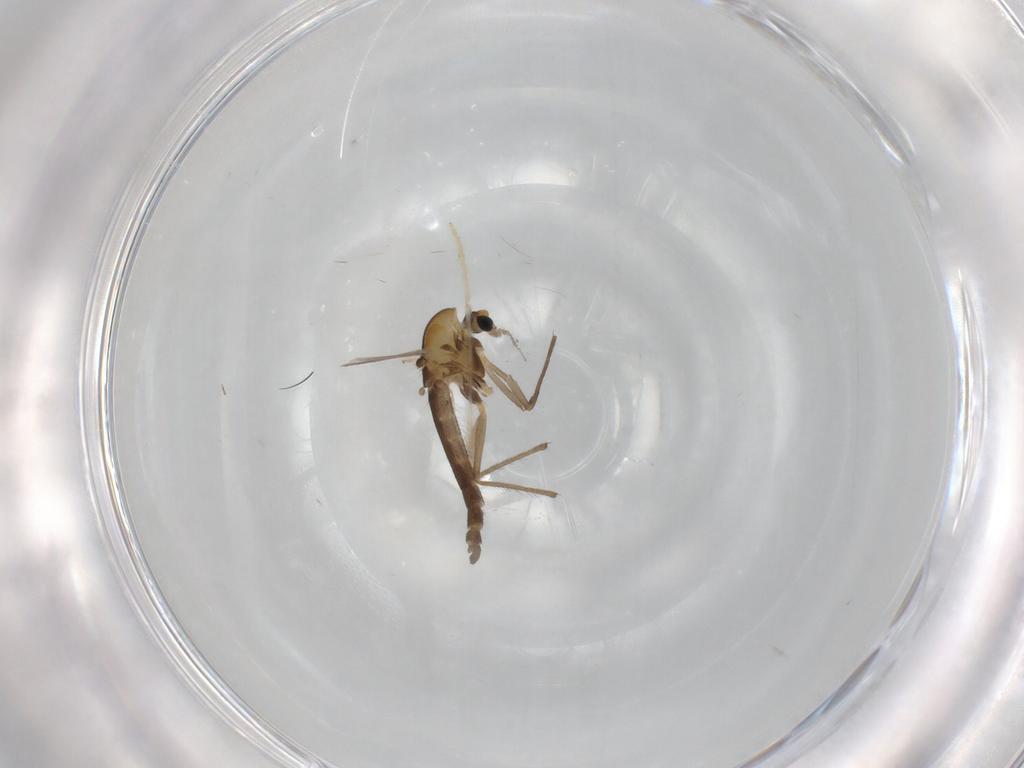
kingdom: Animalia
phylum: Arthropoda
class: Insecta
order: Diptera
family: Chironomidae
